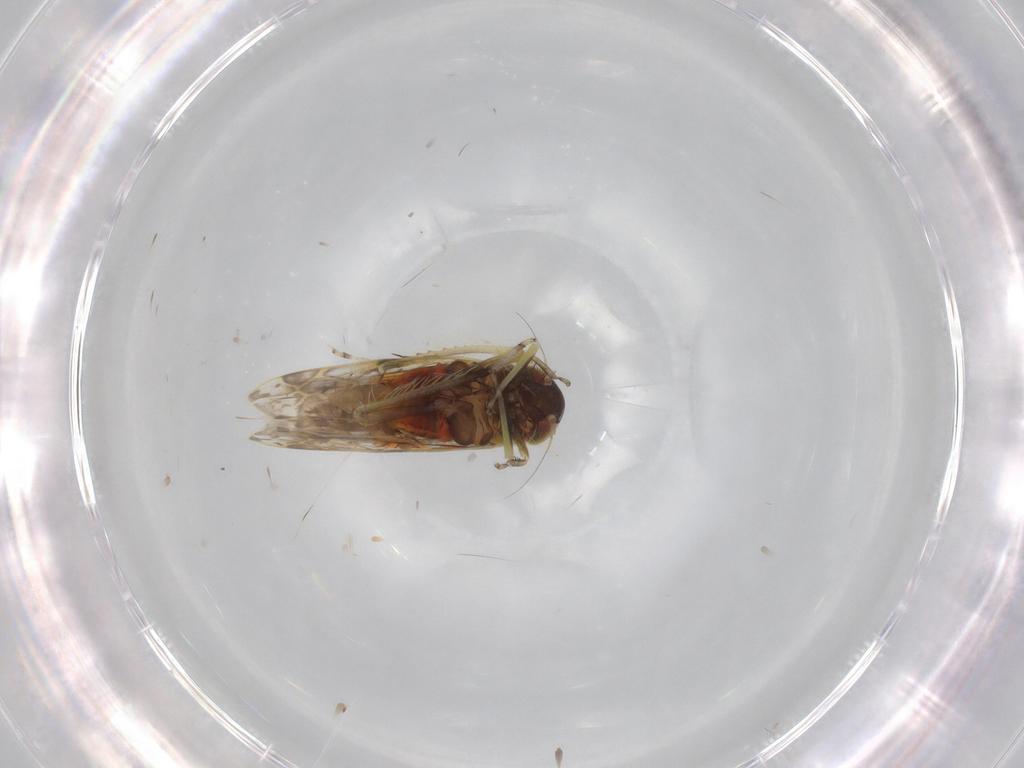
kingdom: Animalia
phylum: Arthropoda
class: Insecta
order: Hemiptera
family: Cicadellidae
